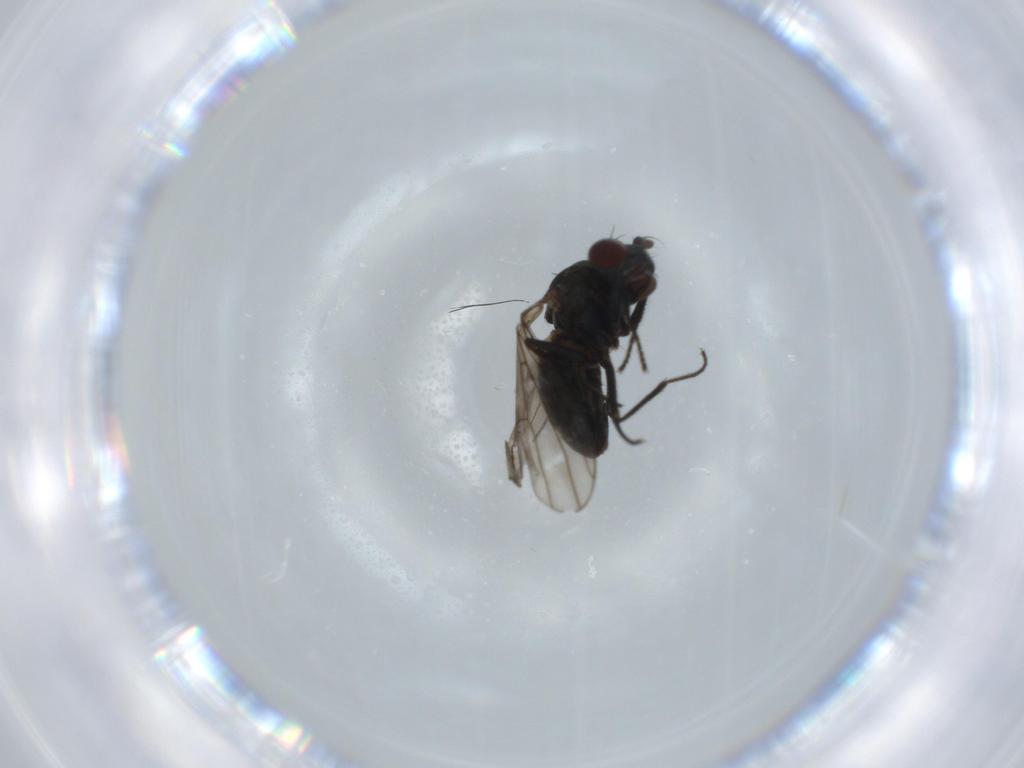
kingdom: Animalia
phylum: Arthropoda
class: Insecta
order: Diptera
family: Ephydridae
